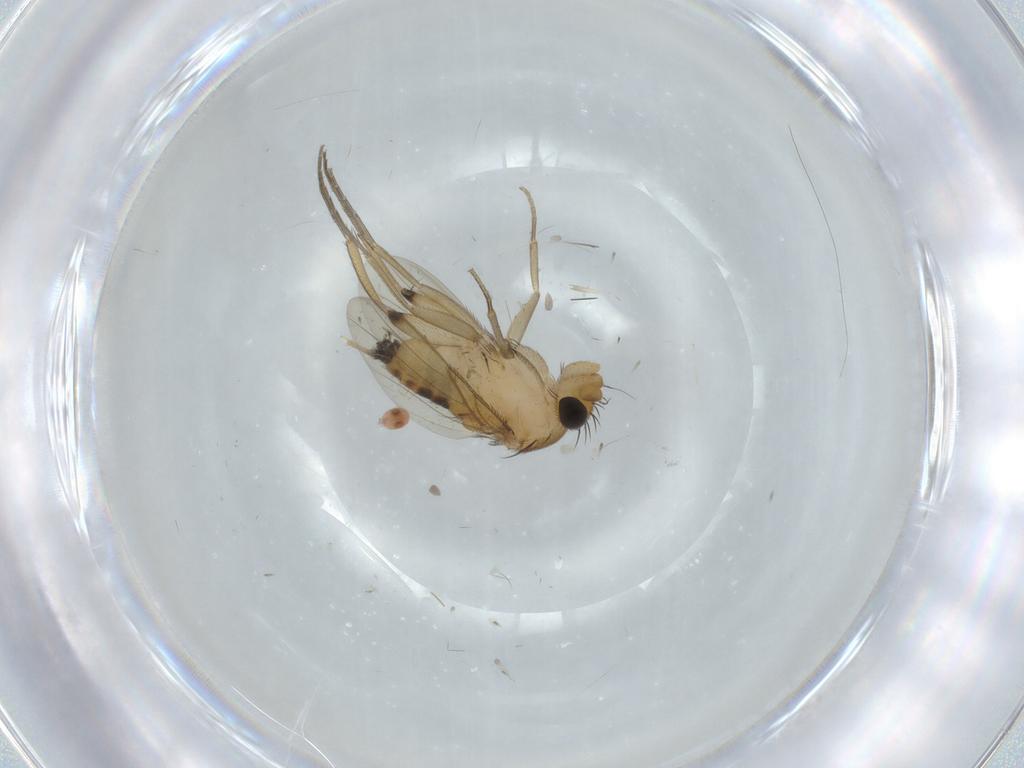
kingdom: Animalia
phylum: Arthropoda
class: Insecta
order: Diptera
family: Phoridae
